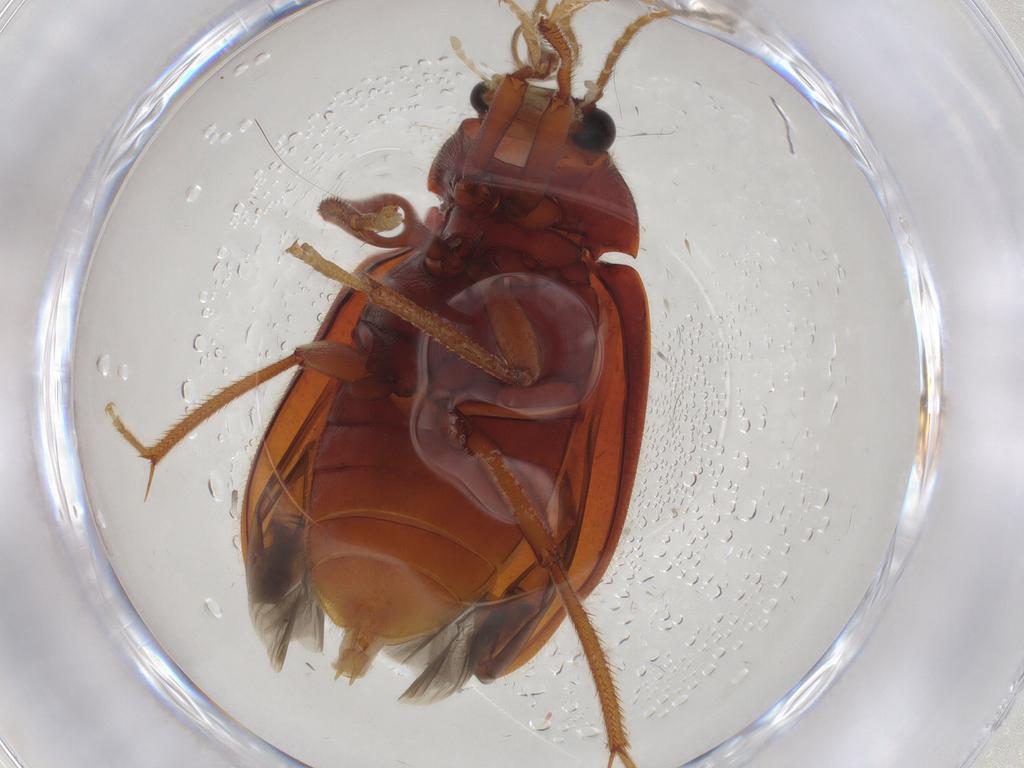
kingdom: Animalia
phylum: Arthropoda
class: Insecta
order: Coleoptera
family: Ptilodactylidae
